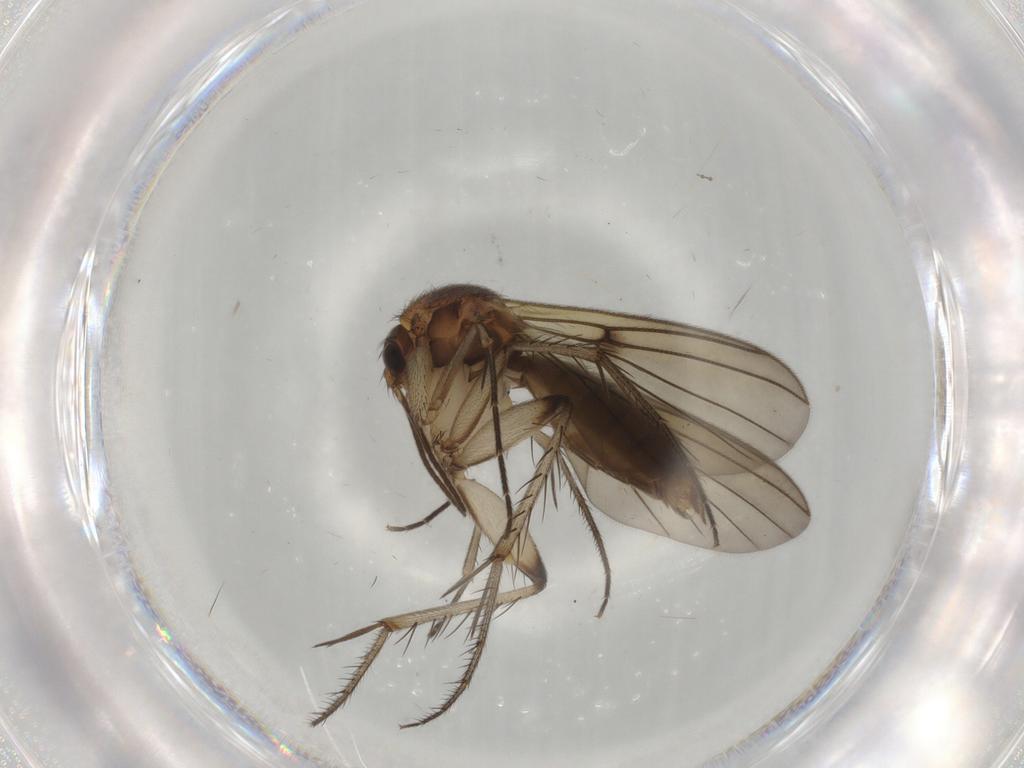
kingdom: Animalia
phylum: Arthropoda
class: Insecta
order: Diptera
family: Mycetophilidae
